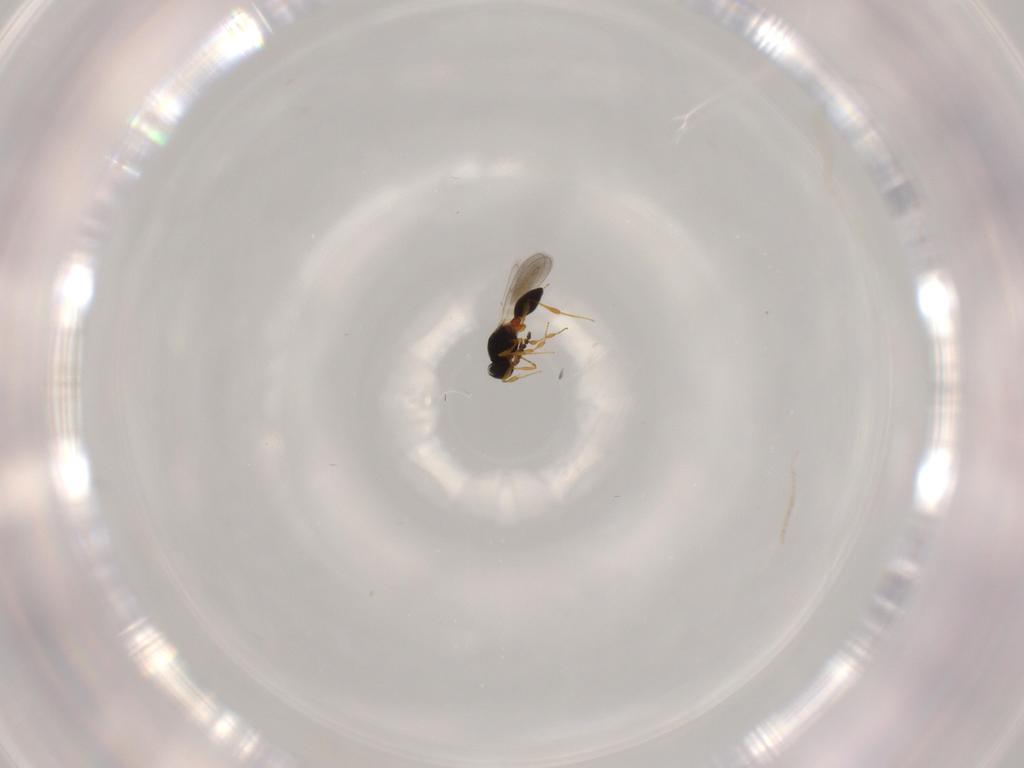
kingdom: Animalia
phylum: Arthropoda
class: Insecta
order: Hymenoptera
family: Platygastridae
